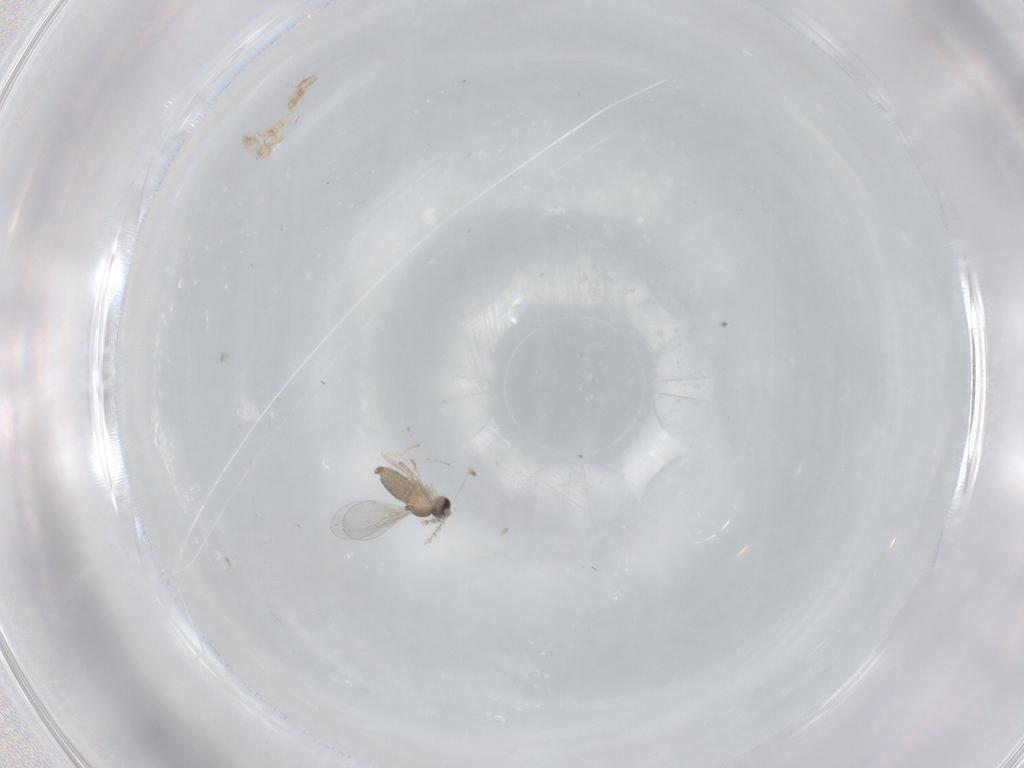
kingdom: Animalia
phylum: Arthropoda
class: Insecta
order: Diptera
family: Cecidomyiidae
